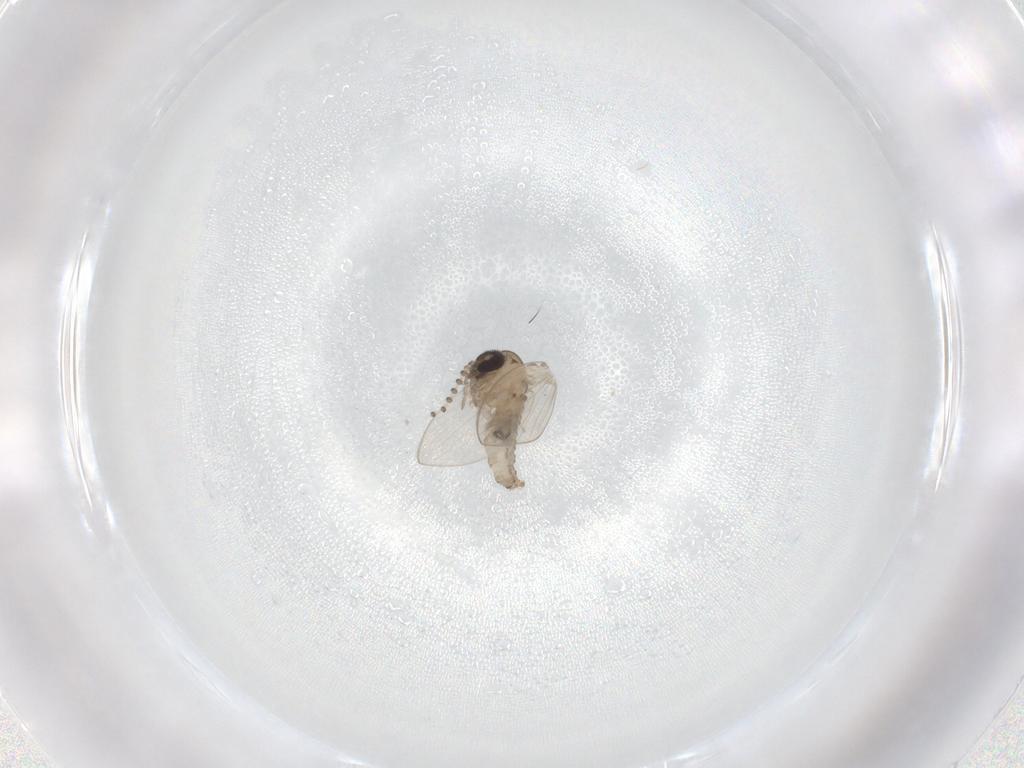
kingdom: Animalia
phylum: Arthropoda
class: Insecta
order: Diptera
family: Psychodidae
